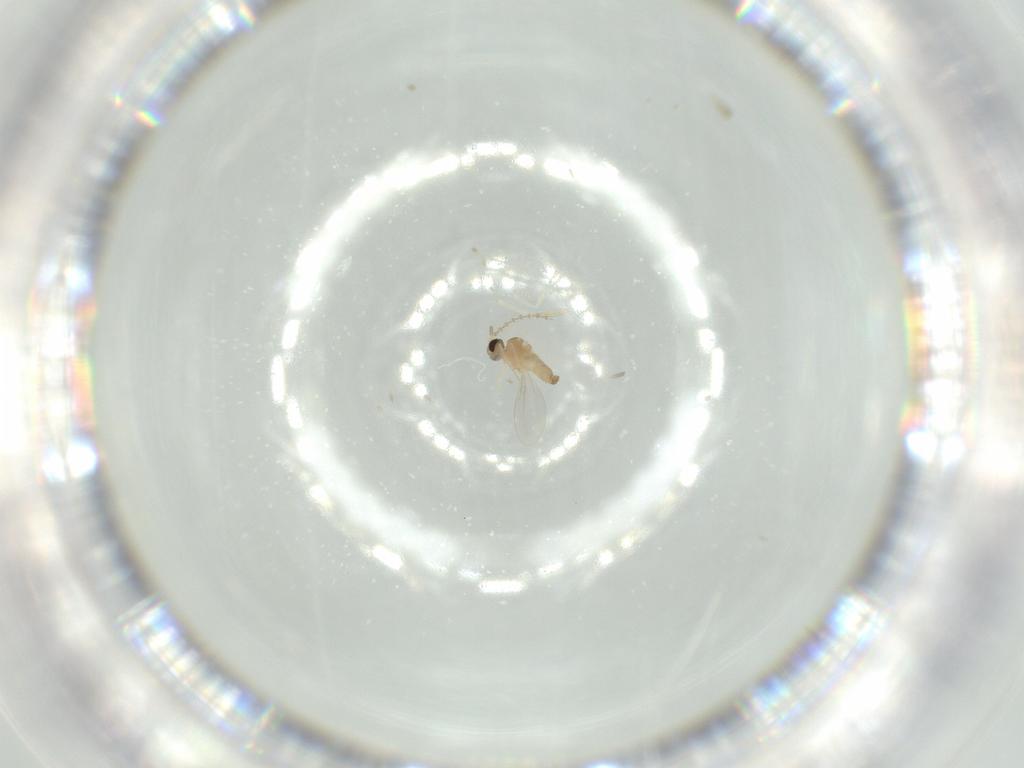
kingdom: Animalia
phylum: Arthropoda
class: Insecta
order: Diptera
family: Cecidomyiidae
